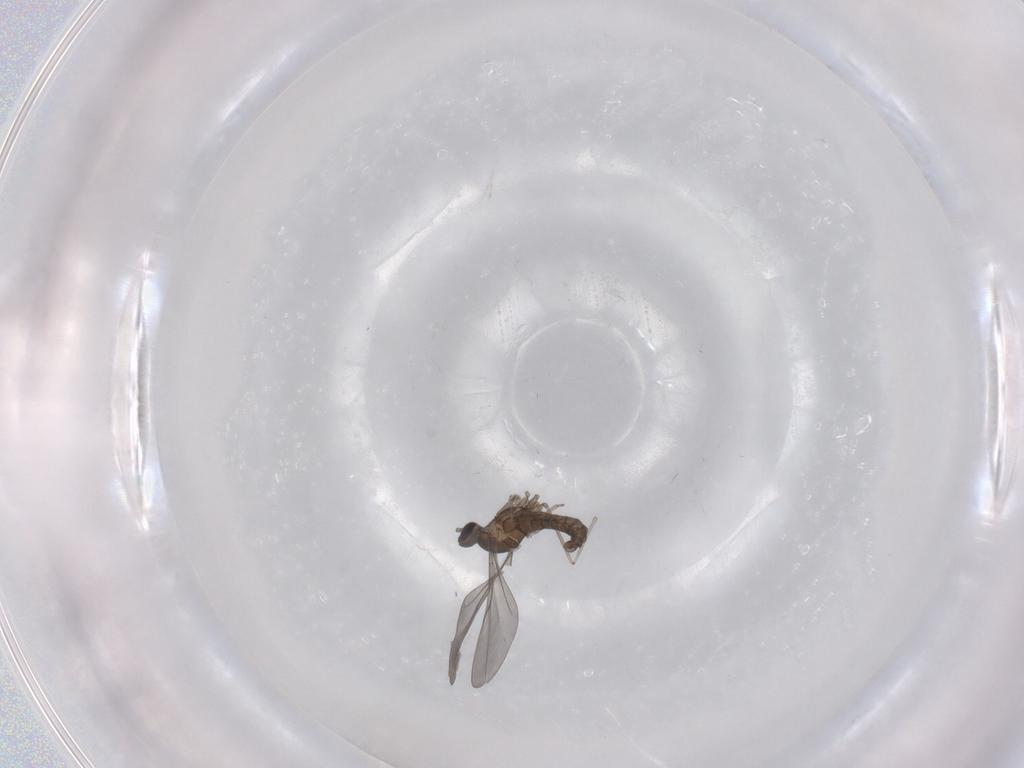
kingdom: Animalia
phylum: Arthropoda
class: Insecta
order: Diptera
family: Cecidomyiidae
